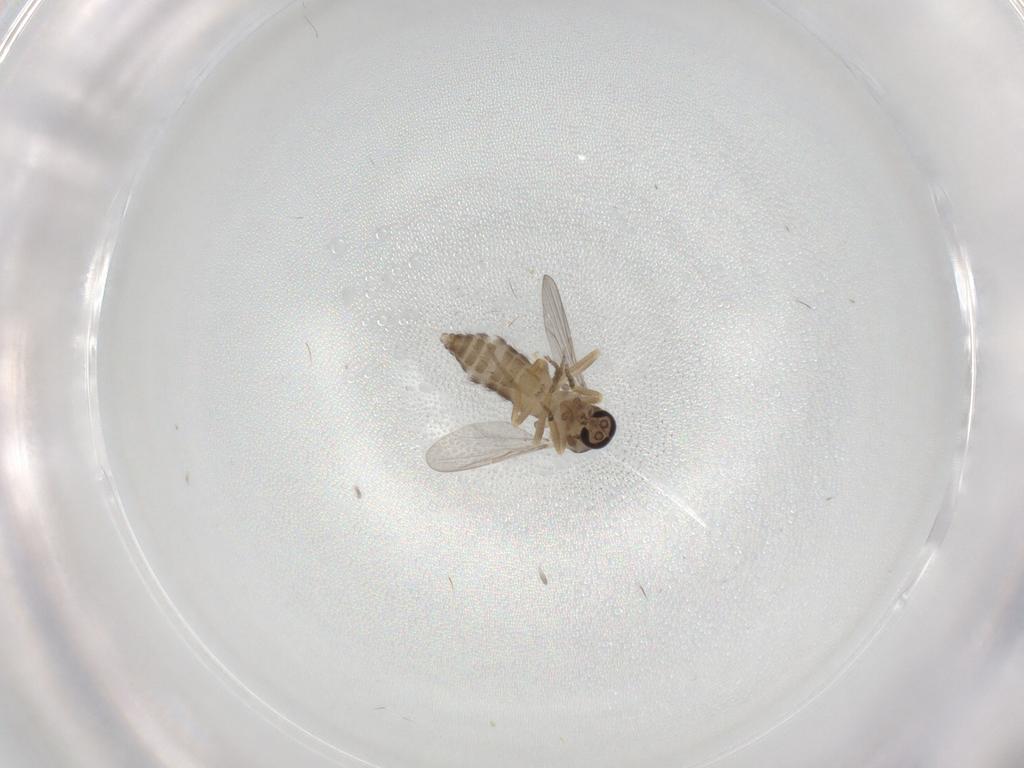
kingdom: Animalia
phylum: Arthropoda
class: Insecta
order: Diptera
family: Ceratopogonidae
